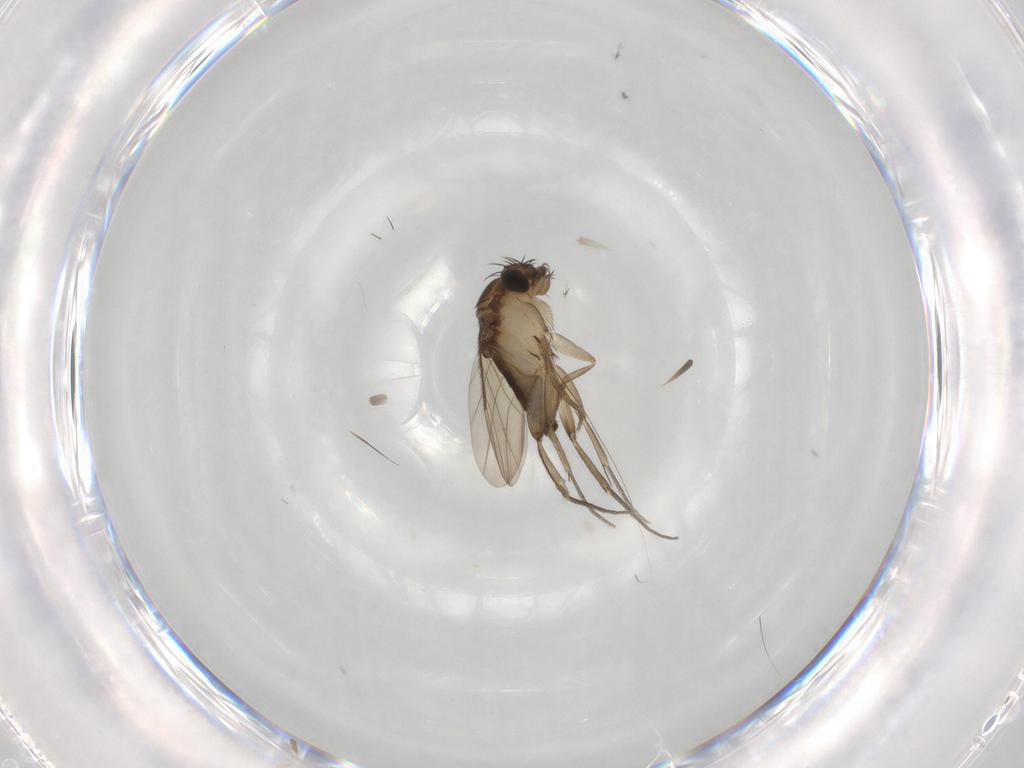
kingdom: Animalia
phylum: Arthropoda
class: Insecta
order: Diptera
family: Phoridae
